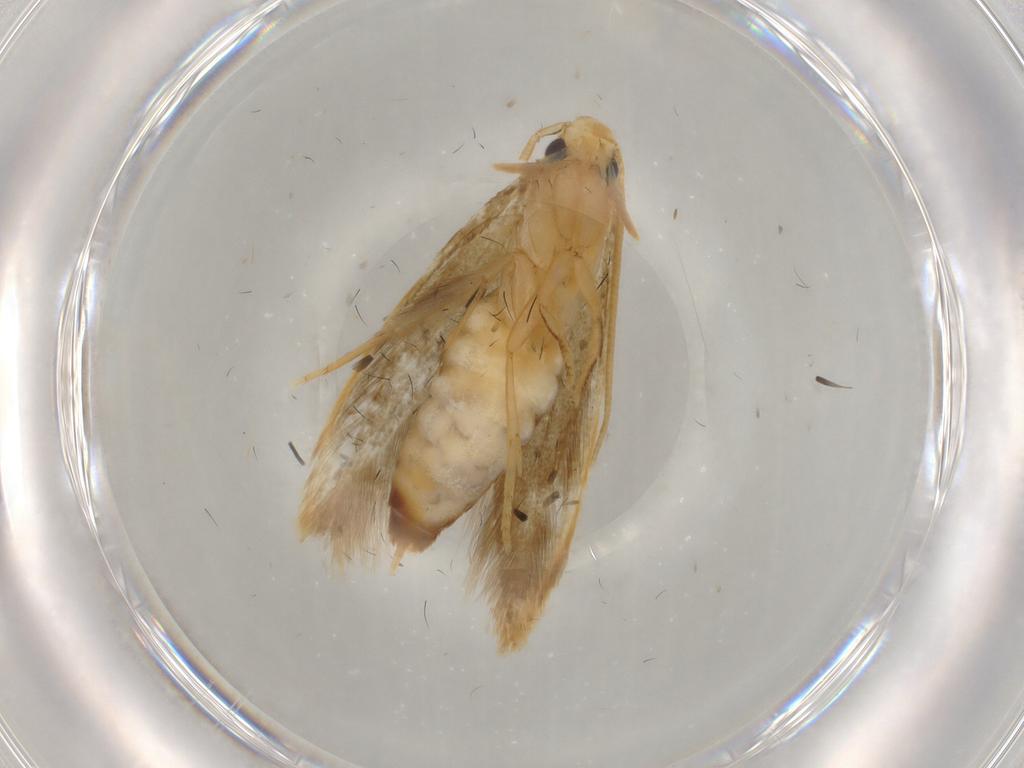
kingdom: Animalia
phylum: Arthropoda
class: Insecta
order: Lepidoptera
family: Tineidae
